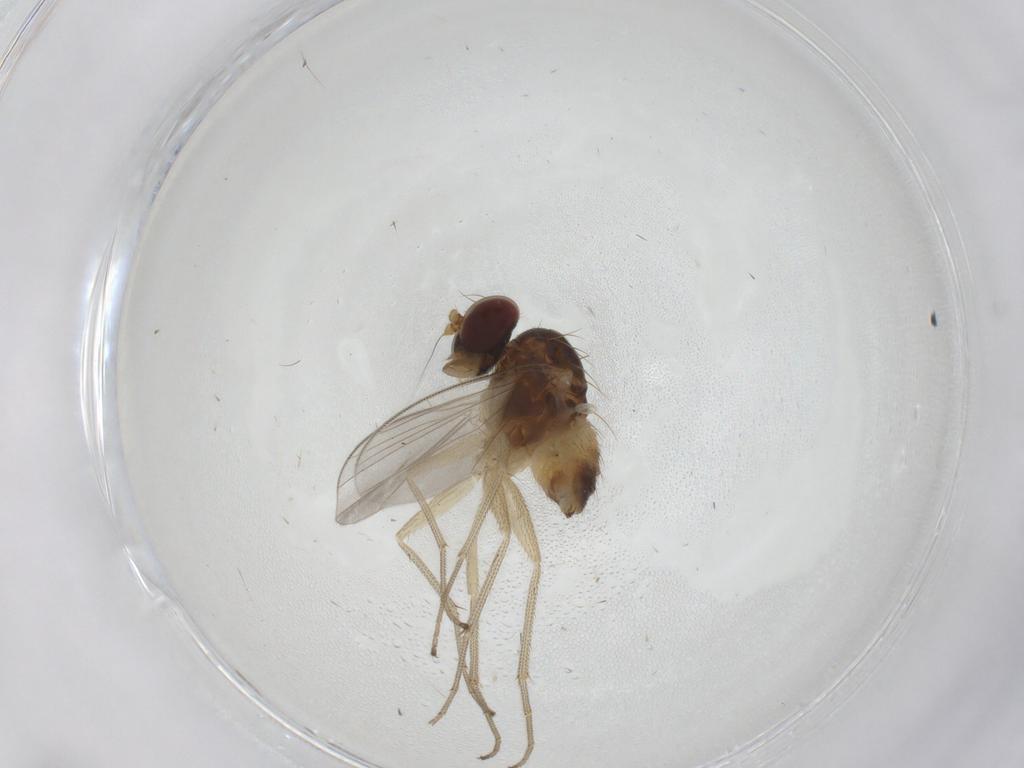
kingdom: Animalia
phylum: Arthropoda
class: Insecta
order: Diptera
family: Dolichopodidae
